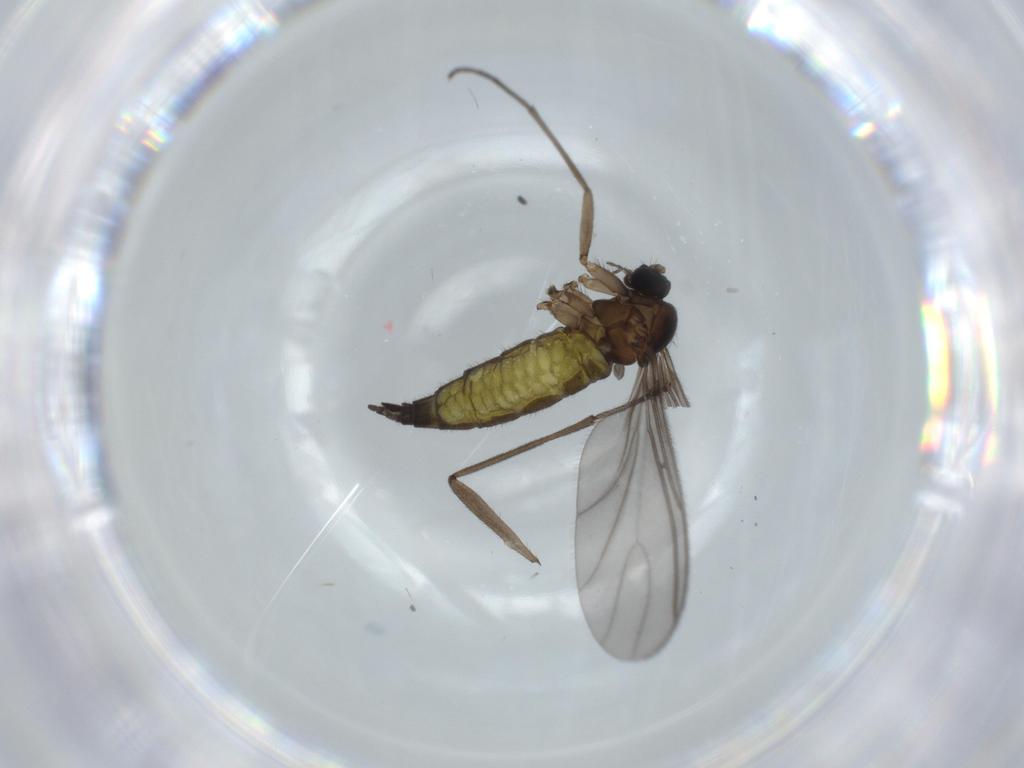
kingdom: Animalia
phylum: Arthropoda
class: Insecta
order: Diptera
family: Sciaridae
